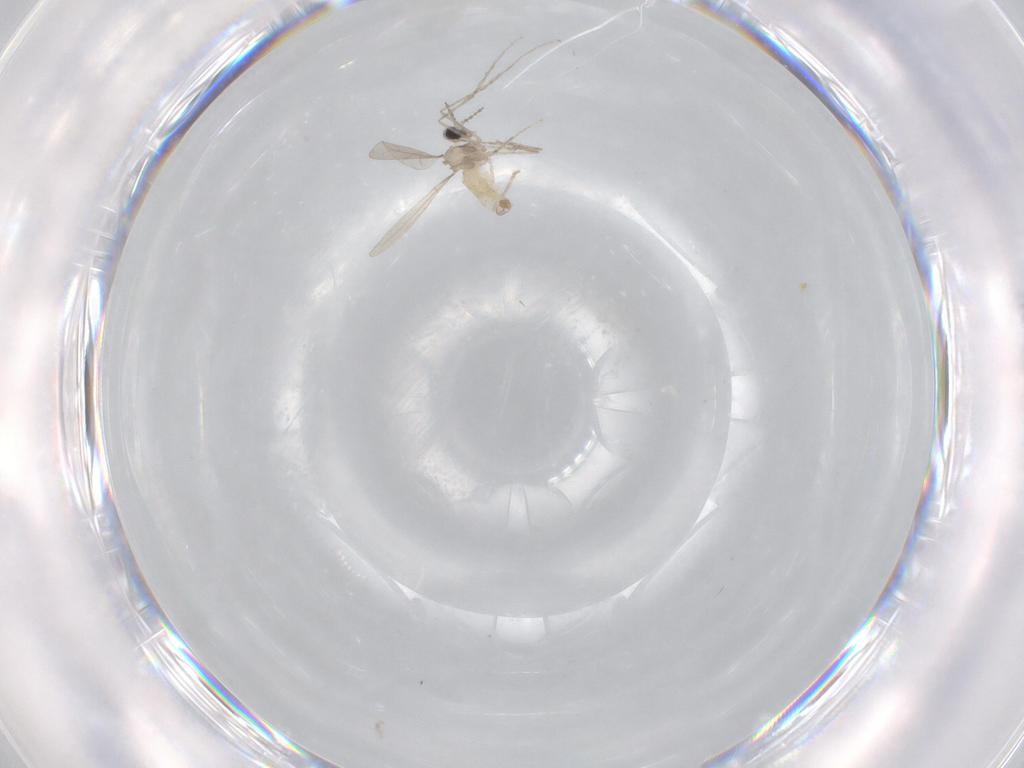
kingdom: Animalia
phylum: Arthropoda
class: Insecta
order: Diptera
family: Cecidomyiidae
